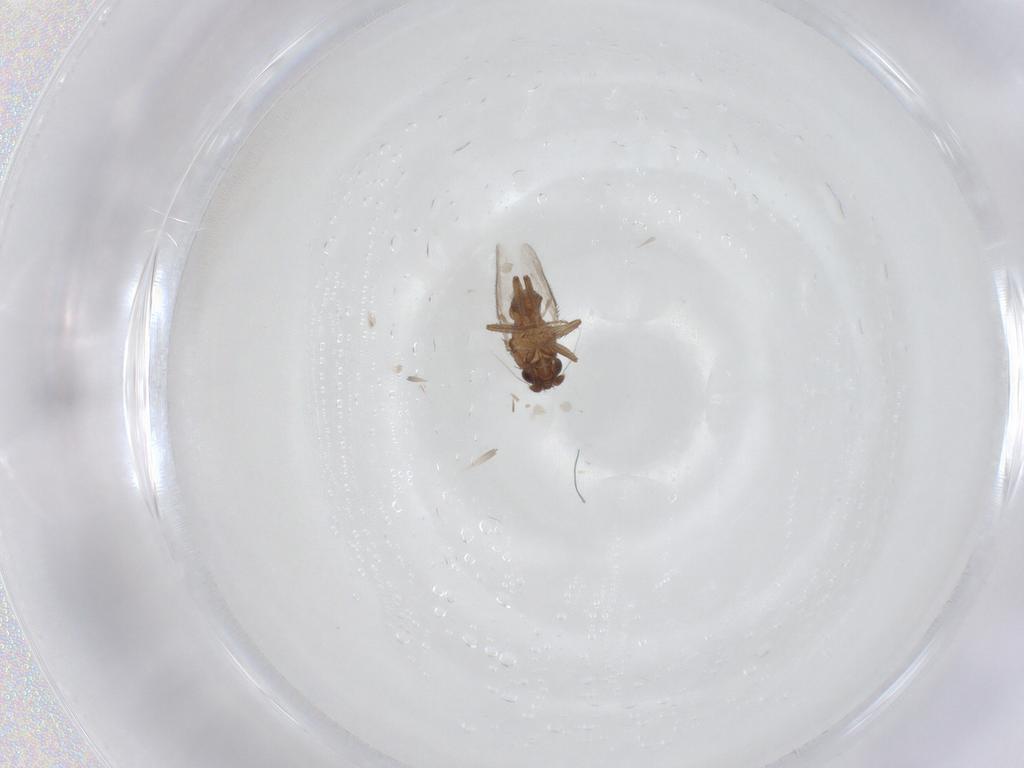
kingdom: Animalia
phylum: Arthropoda
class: Insecta
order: Diptera
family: Sphaeroceridae
